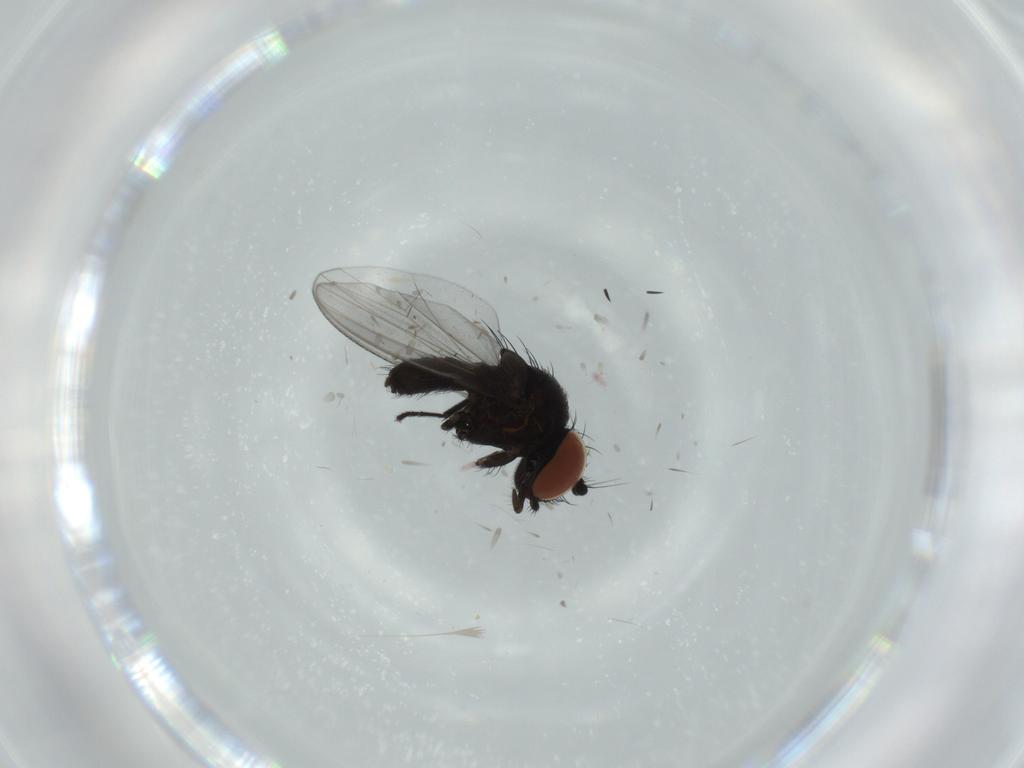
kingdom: Animalia
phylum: Arthropoda
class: Insecta
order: Diptera
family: Milichiidae
